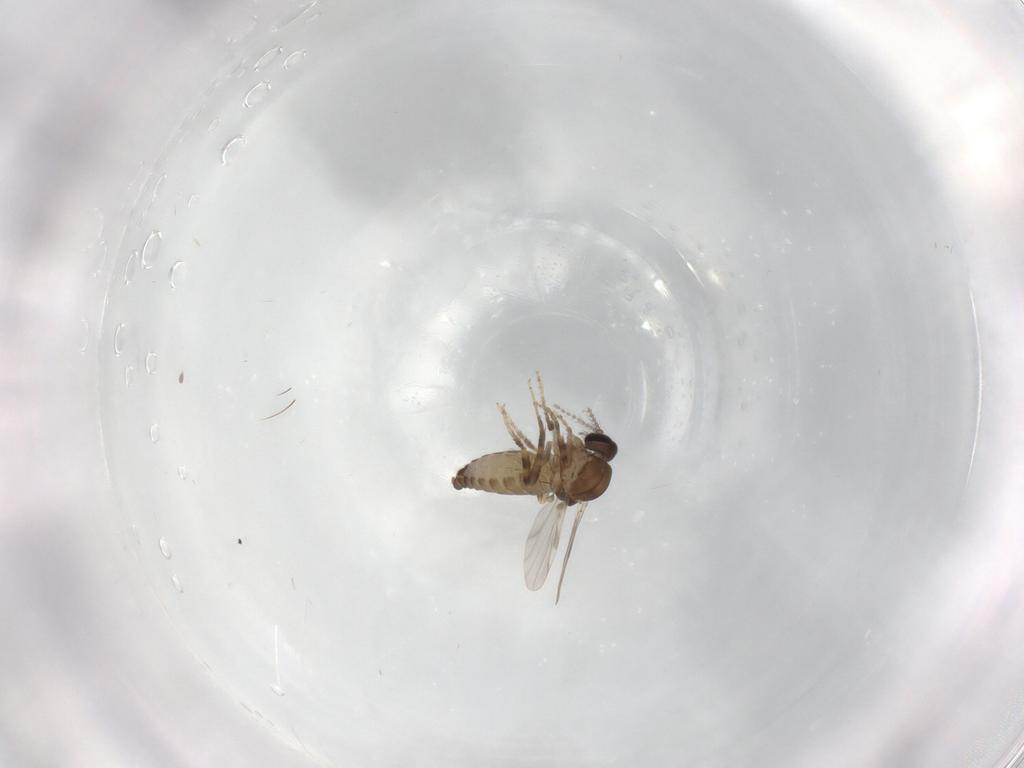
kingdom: Animalia
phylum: Arthropoda
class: Insecta
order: Diptera
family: Ceratopogonidae
